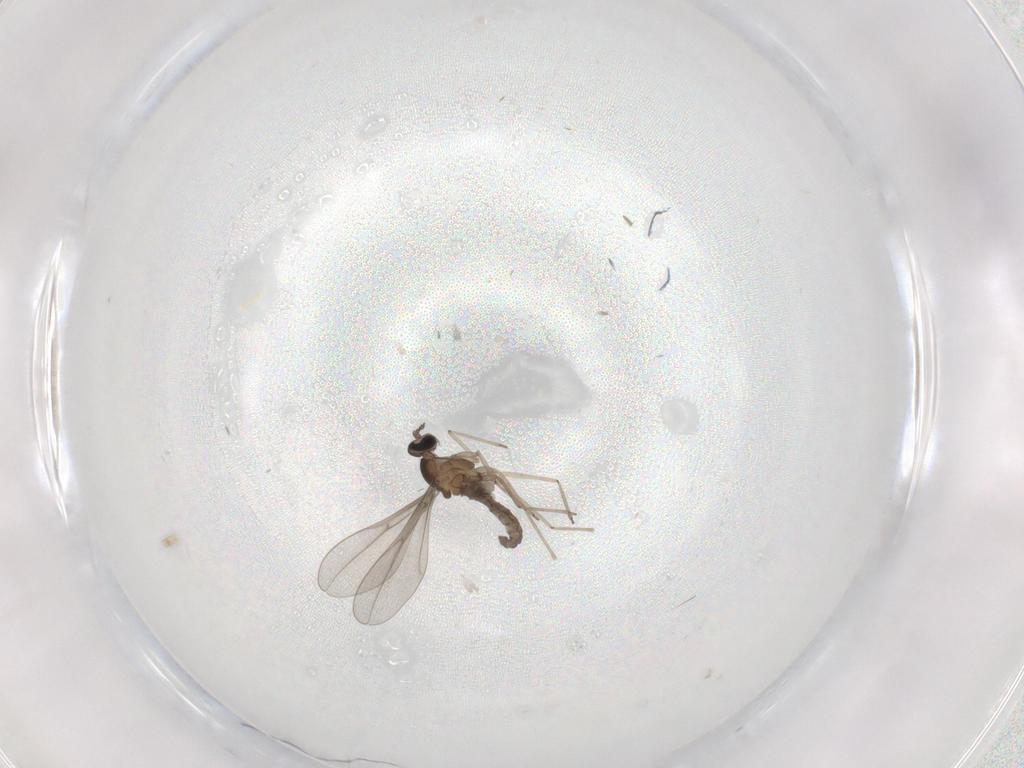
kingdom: Animalia
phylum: Arthropoda
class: Insecta
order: Diptera
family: Cecidomyiidae
